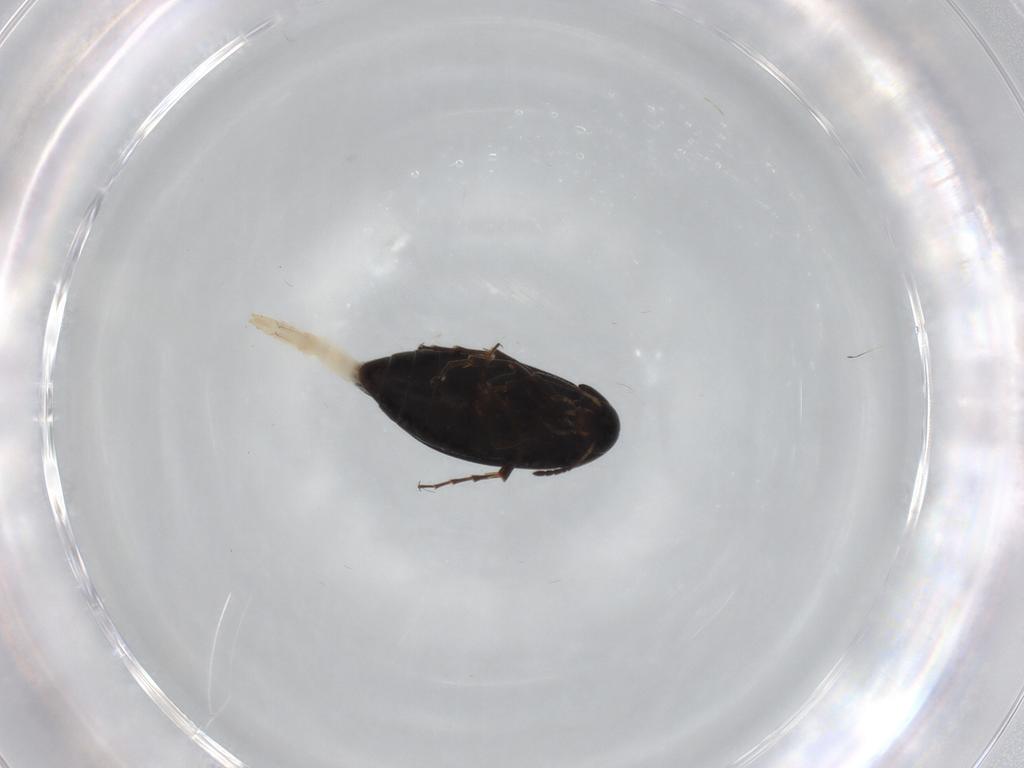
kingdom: Animalia
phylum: Arthropoda
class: Insecta
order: Coleoptera
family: Scraptiidae
